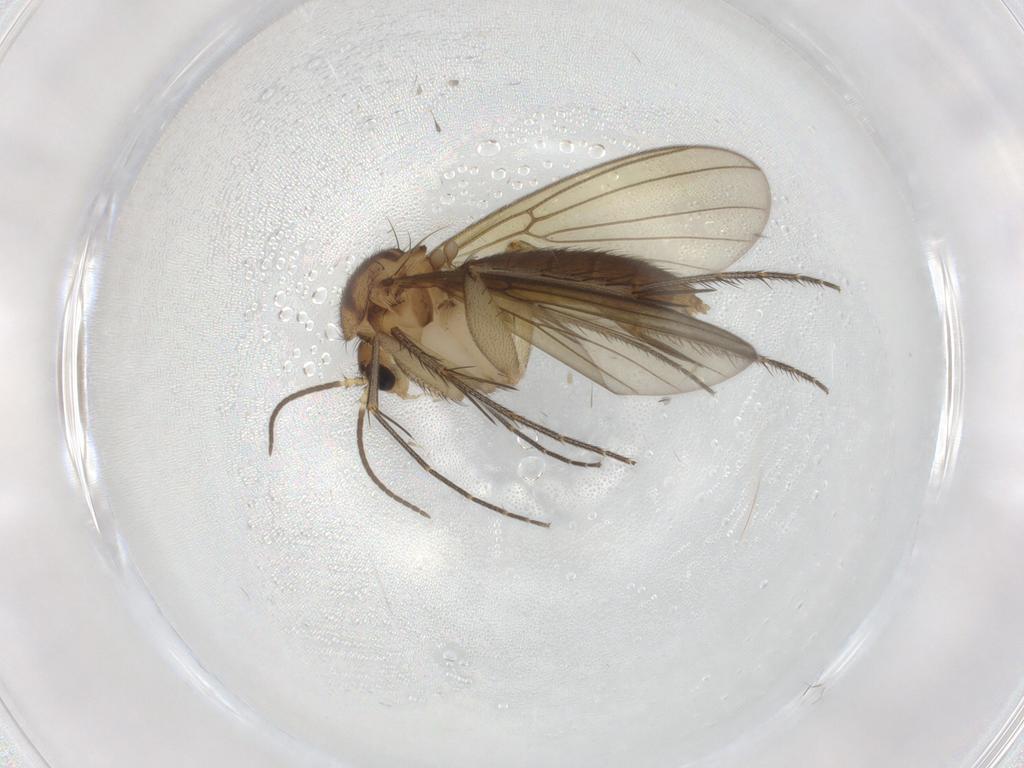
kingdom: Animalia
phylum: Arthropoda
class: Insecta
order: Diptera
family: Mycetophilidae
